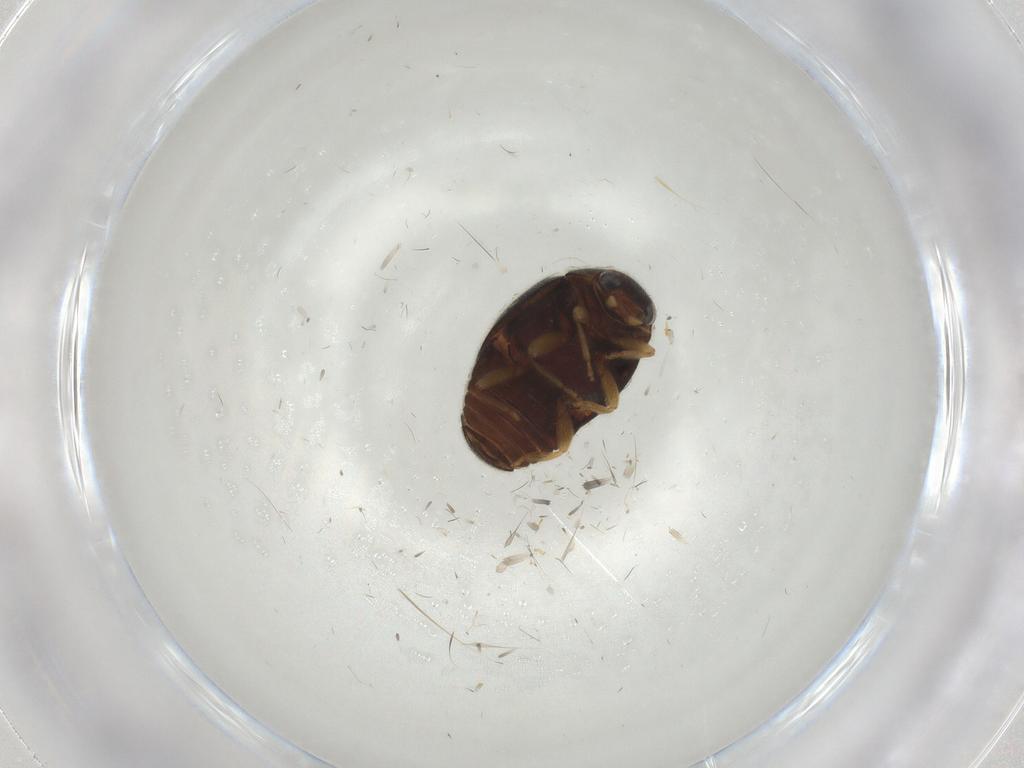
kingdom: Animalia
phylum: Arthropoda
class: Insecta
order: Coleoptera
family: Coccinellidae
